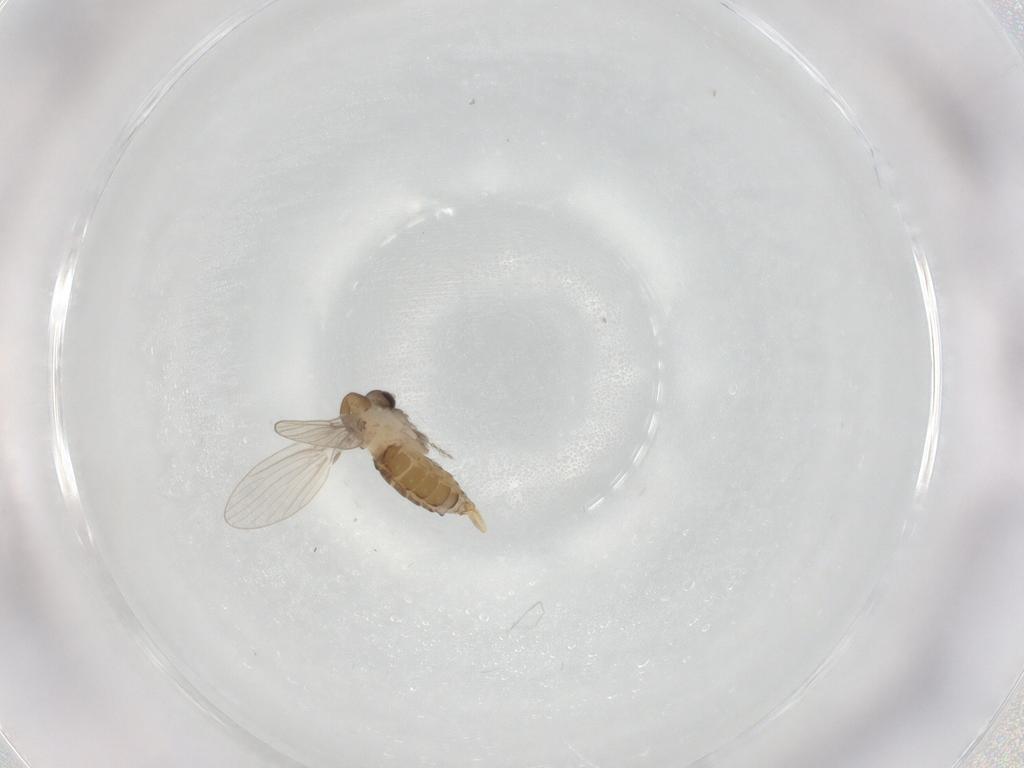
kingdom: Animalia
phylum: Arthropoda
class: Insecta
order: Diptera
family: Psychodidae
